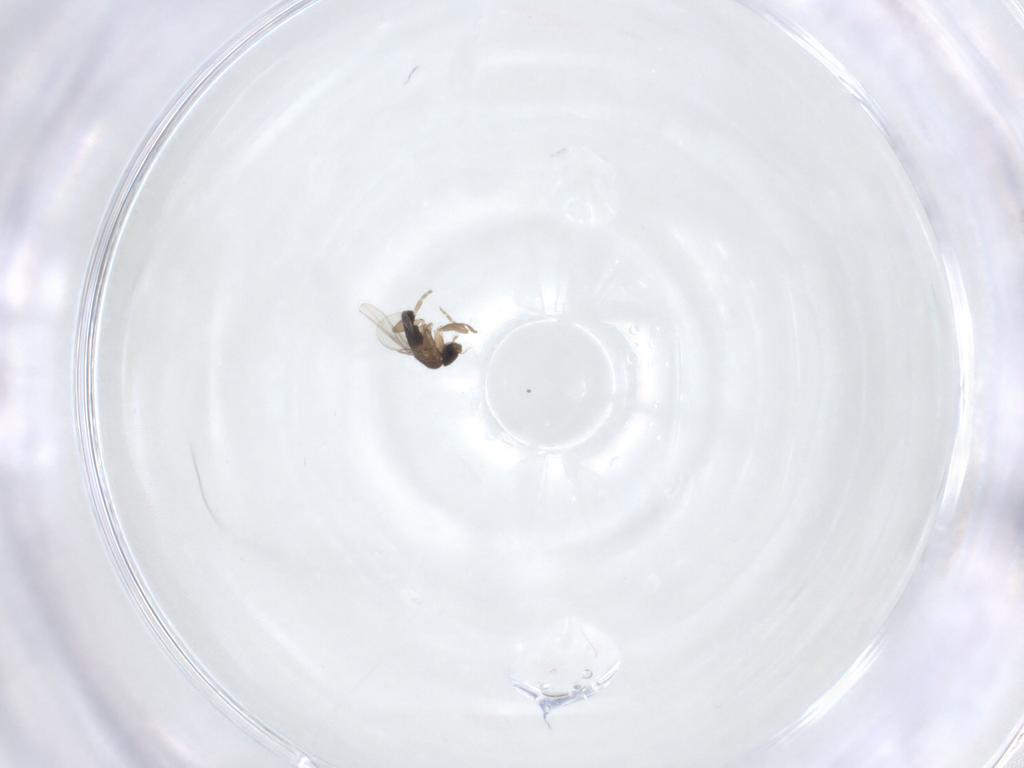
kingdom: Animalia
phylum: Arthropoda
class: Insecta
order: Diptera
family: Phoridae
